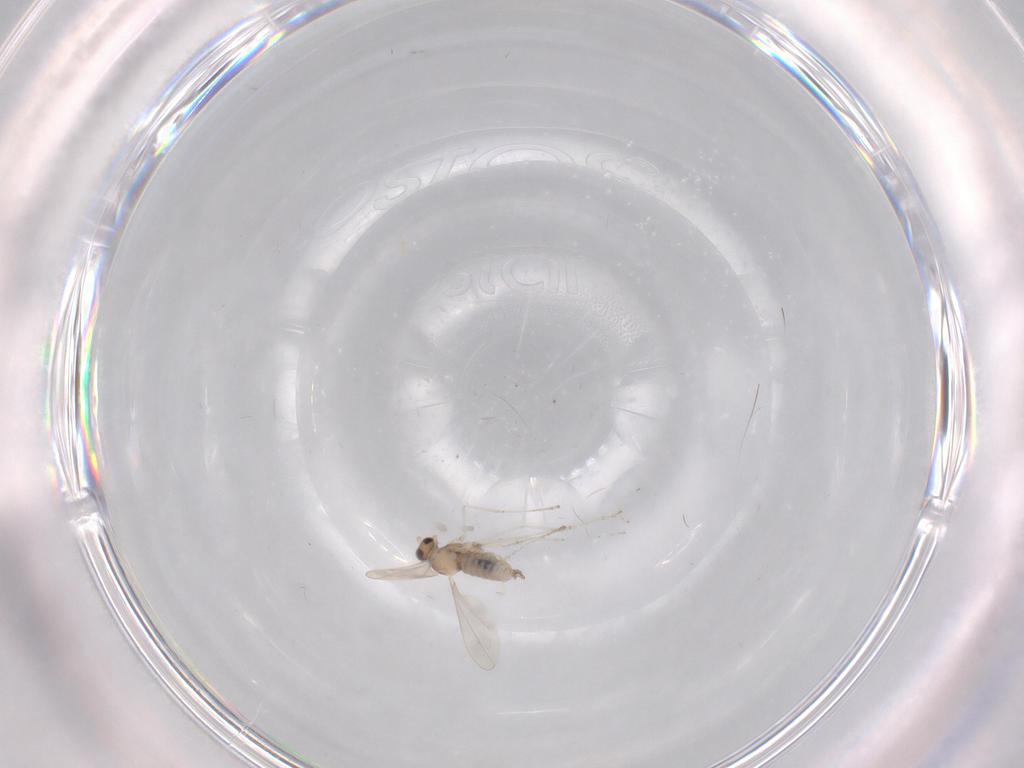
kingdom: Animalia
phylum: Arthropoda
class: Insecta
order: Diptera
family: Cecidomyiidae
